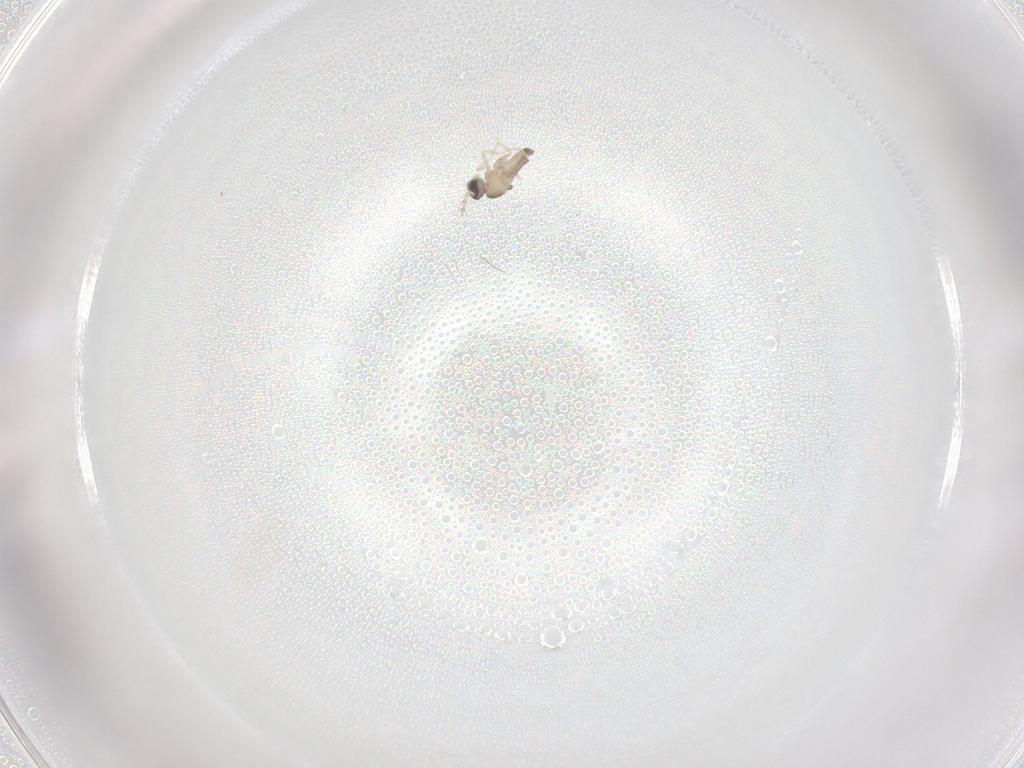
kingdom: Animalia
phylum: Arthropoda
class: Insecta
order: Diptera
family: Cecidomyiidae
